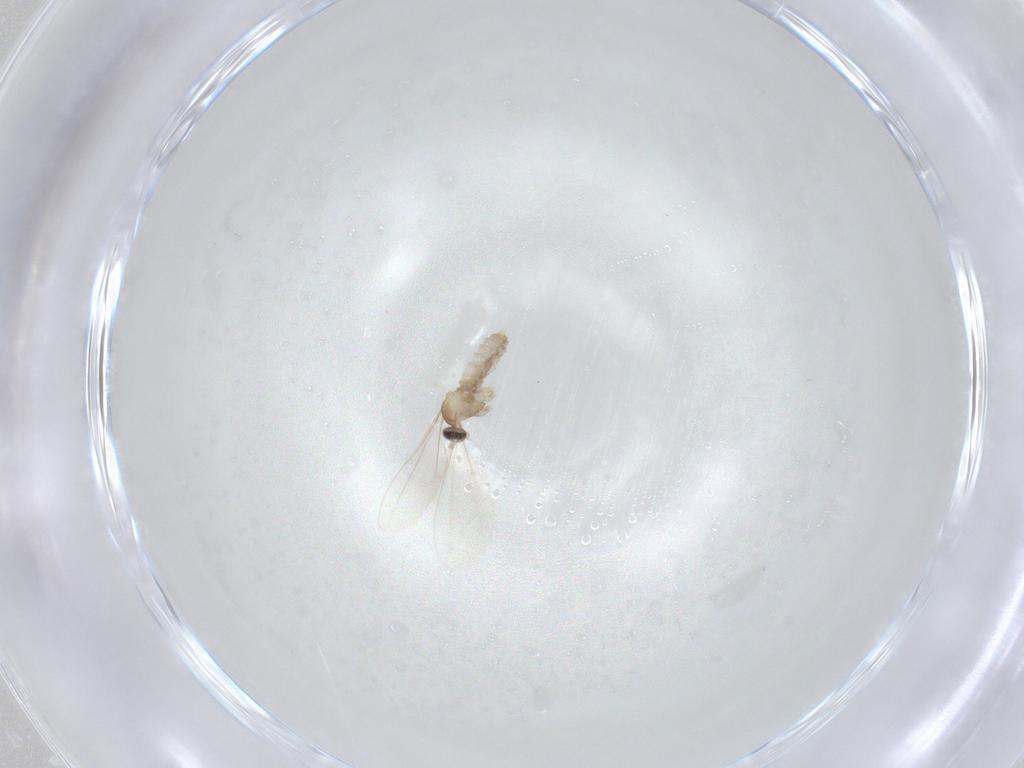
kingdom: Animalia
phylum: Arthropoda
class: Insecta
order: Diptera
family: Cecidomyiidae
